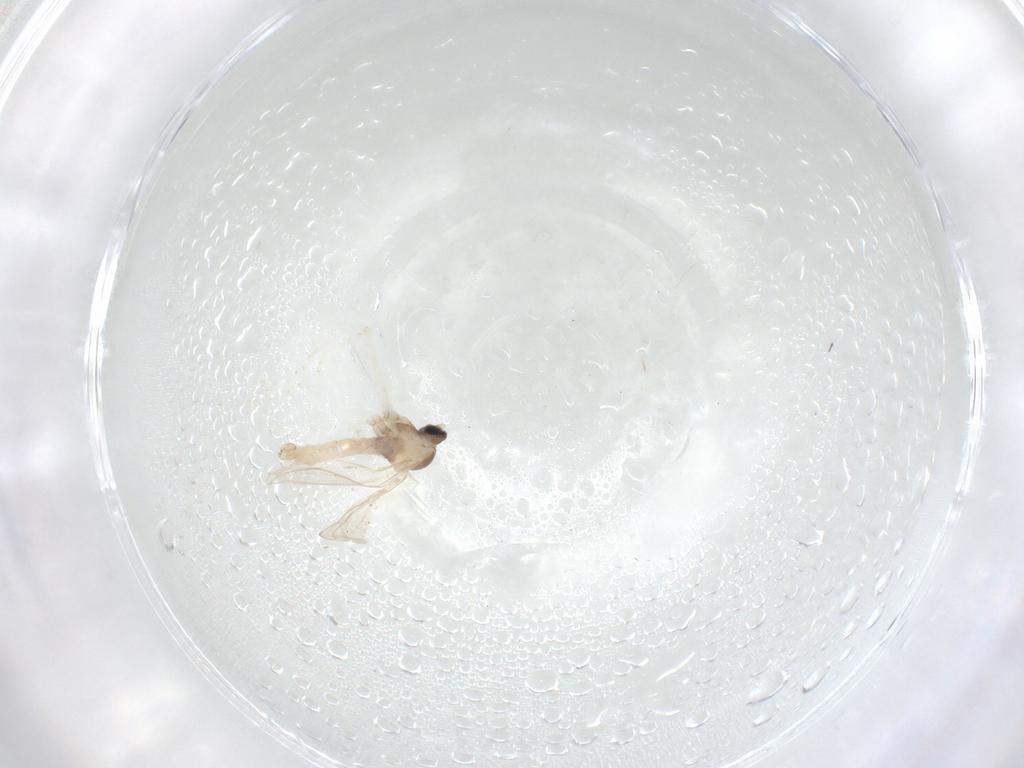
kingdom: Animalia
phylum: Arthropoda
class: Insecta
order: Diptera
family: Cecidomyiidae
